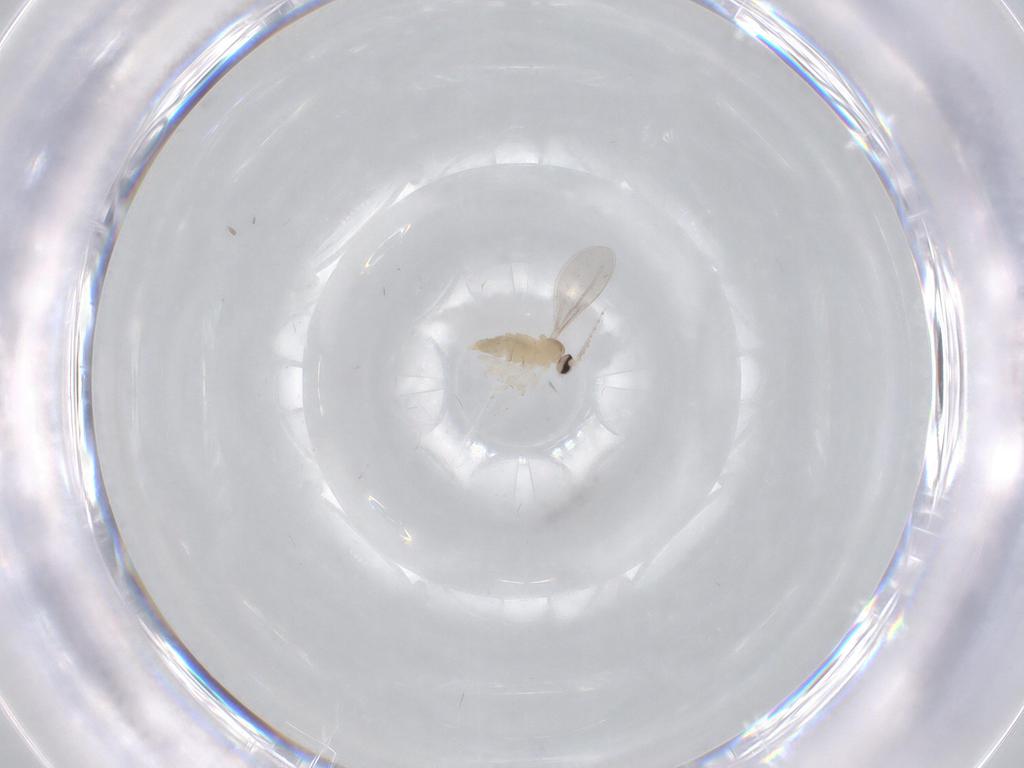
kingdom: Animalia
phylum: Arthropoda
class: Insecta
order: Diptera
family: Cecidomyiidae
